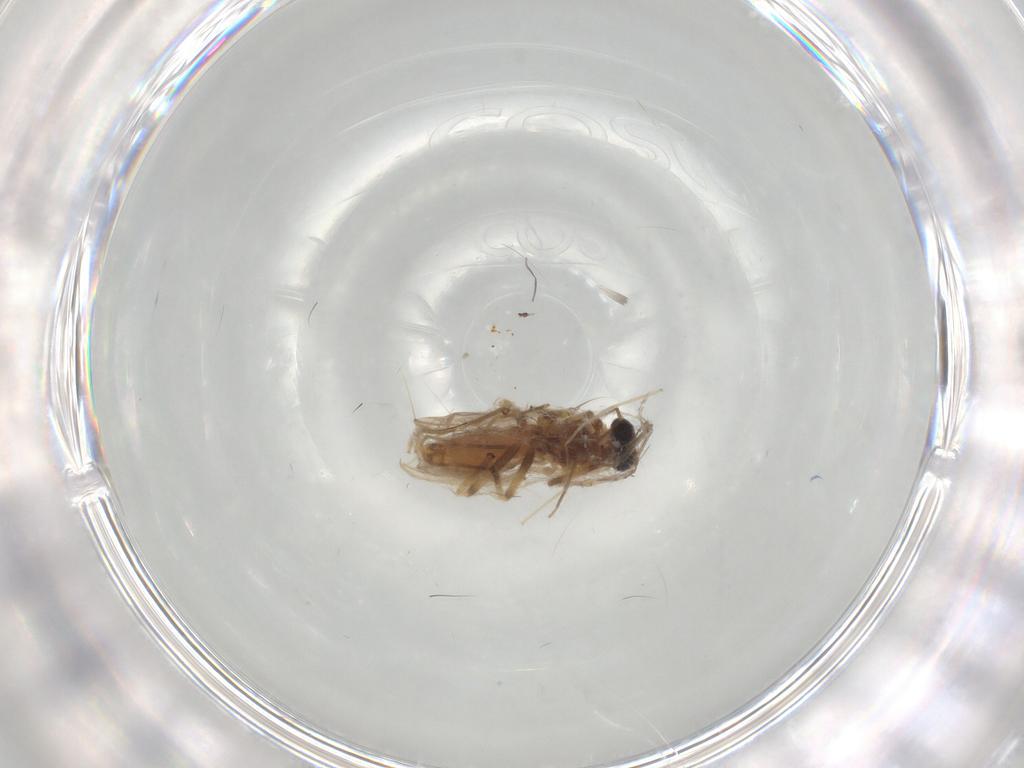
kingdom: Animalia
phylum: Arthropoda
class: Insecta
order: Diptera
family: Chironomidae
